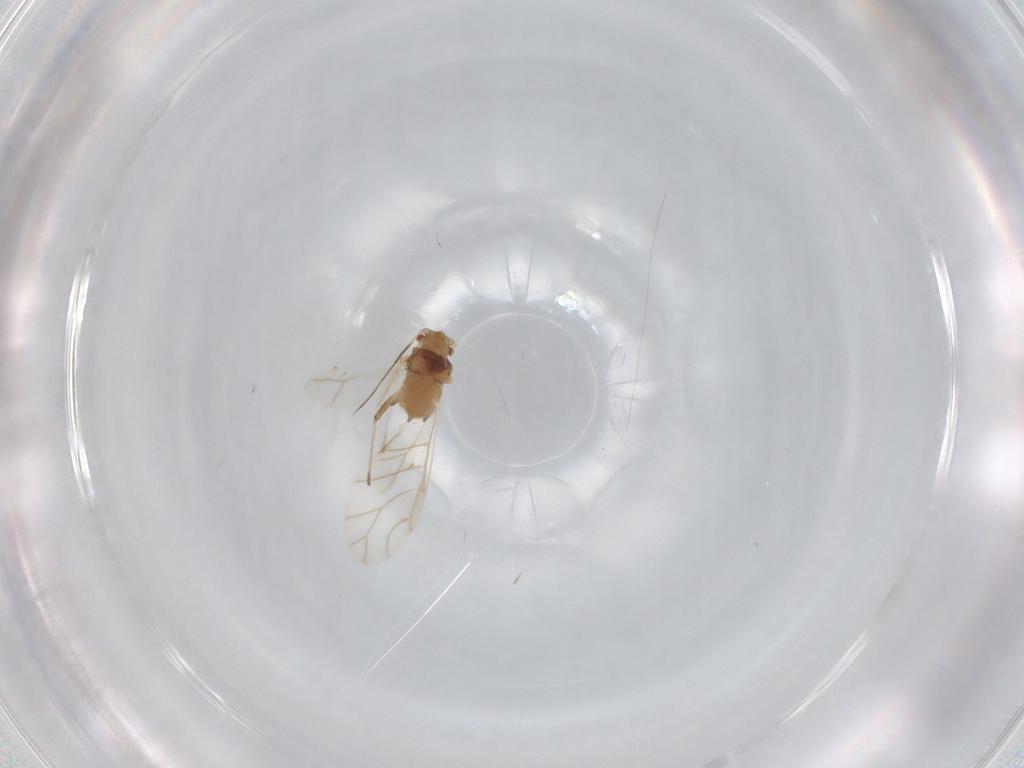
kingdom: Animalia
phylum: Arthropoda
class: Insecta
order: Hemiptera
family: Aphididae
